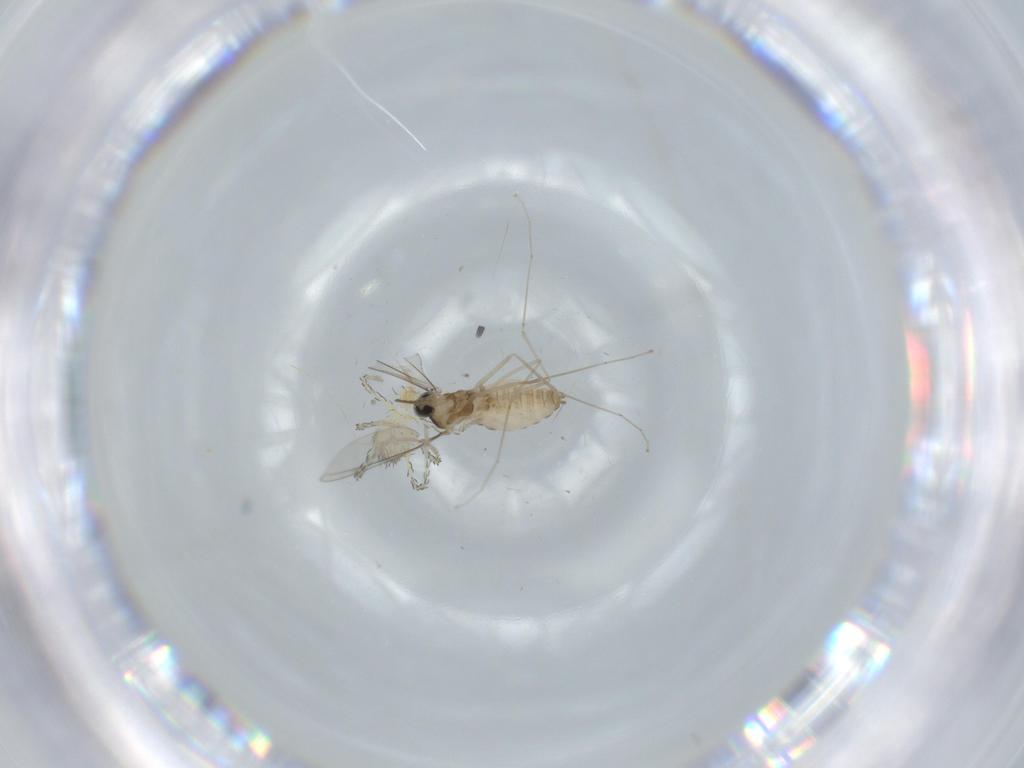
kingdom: Animalia
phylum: Arthropoda
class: Insecta
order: Diptera
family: Cecidomyiidae
